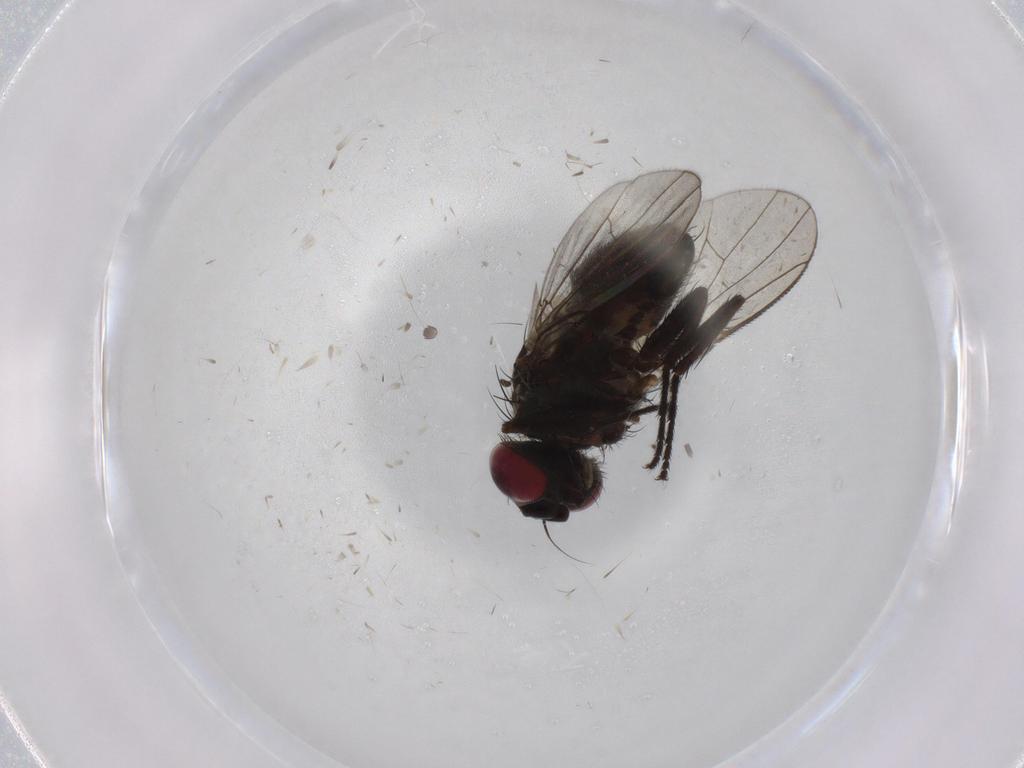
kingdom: Animalia
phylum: Arthropoda
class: Insecta
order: Diptera
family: Muscidae
